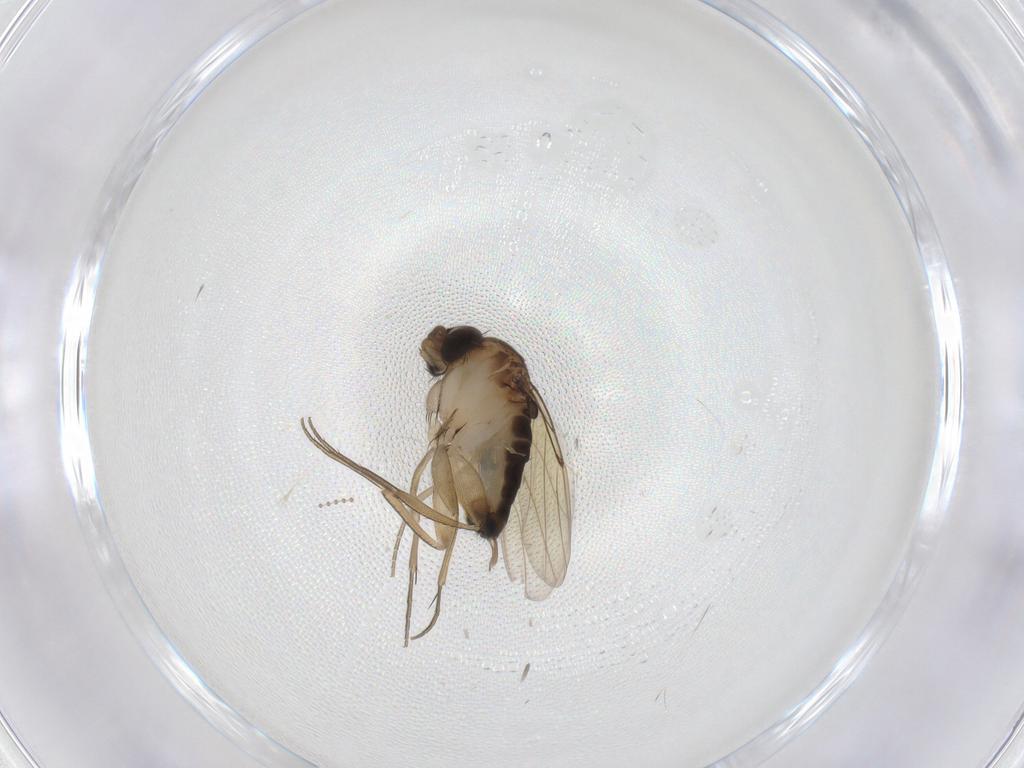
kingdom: Animalia
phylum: Arthropoda
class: Insecta
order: Diptera
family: Phoridae
